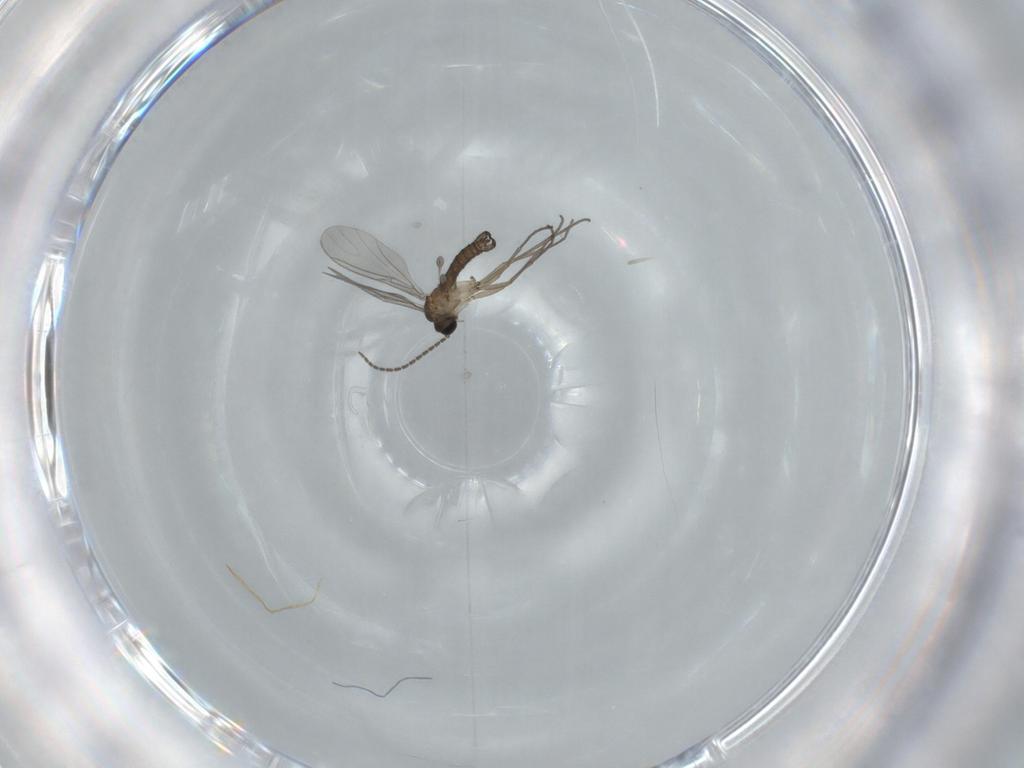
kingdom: Animalia
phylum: Arthropoda
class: Insecta
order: Diptera
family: Sciaridae
